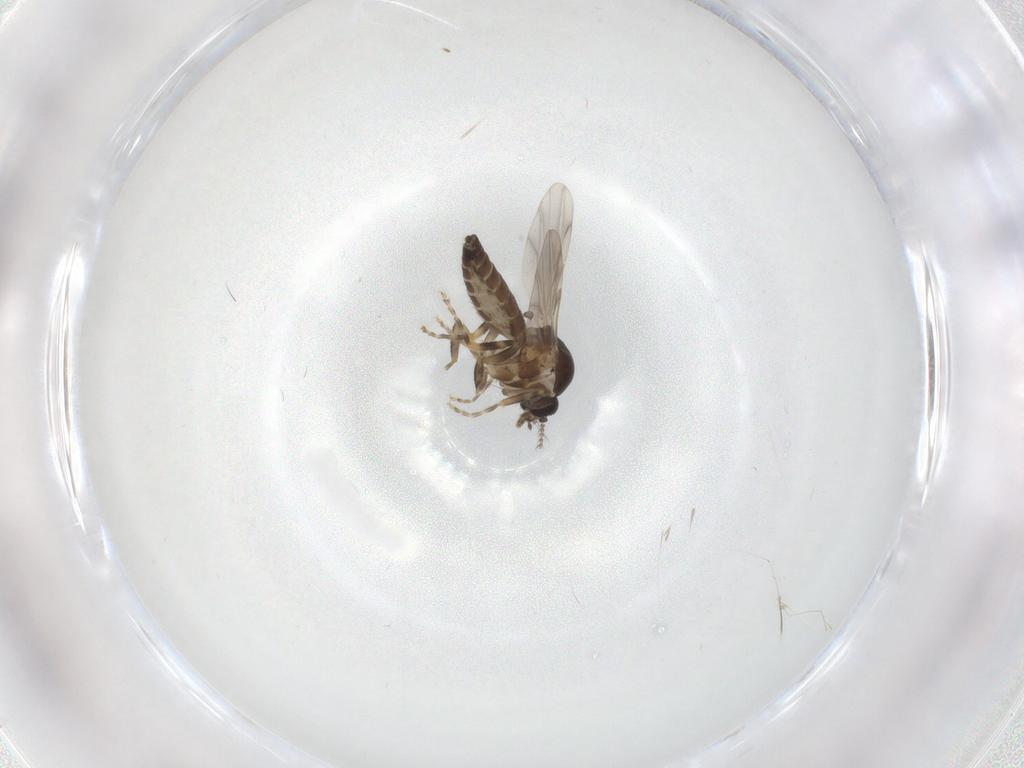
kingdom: Animalia
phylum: Arthropoda
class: Insecta
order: Diptera
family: Ceratopogonidae
